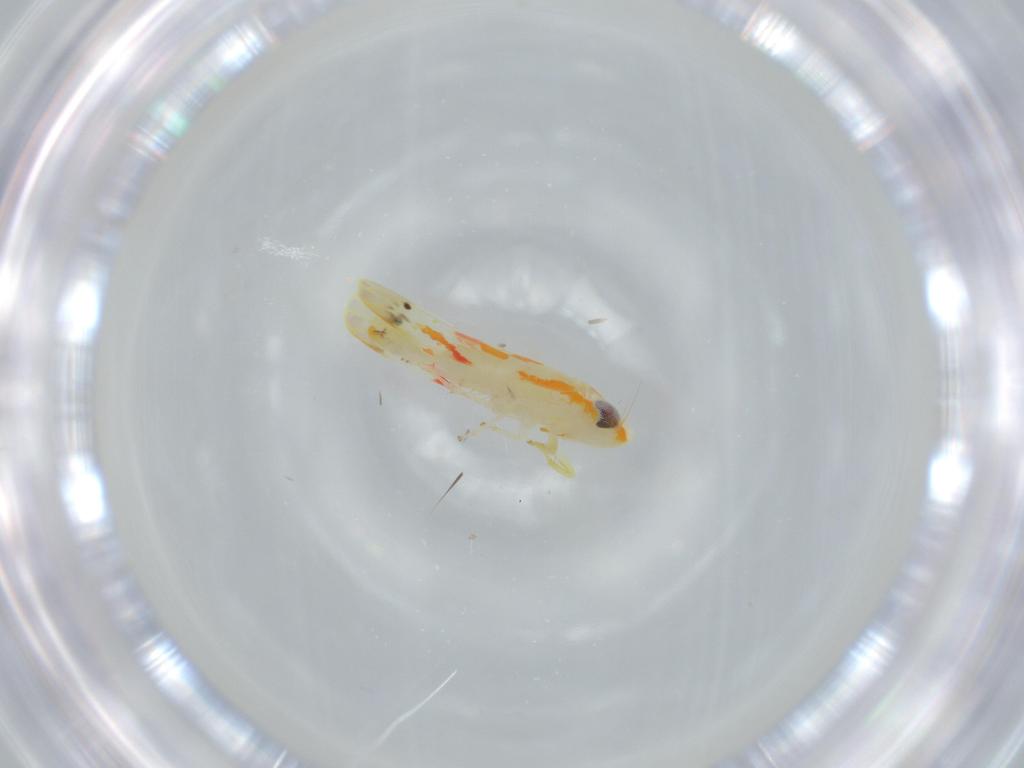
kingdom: Animalia
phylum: Arthropoda
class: Insecta
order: Hemiptera
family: Cicadellidae
